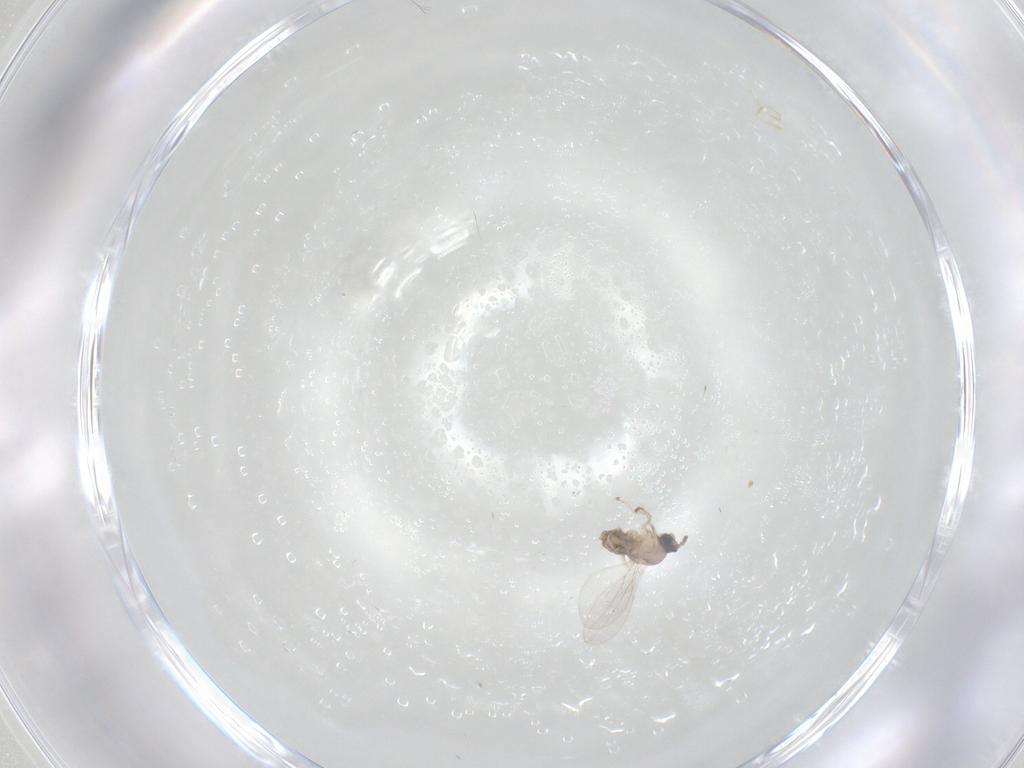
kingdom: Animalia
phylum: Arthropoda
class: Insecta
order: Diptera
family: Cecidomyiidae
